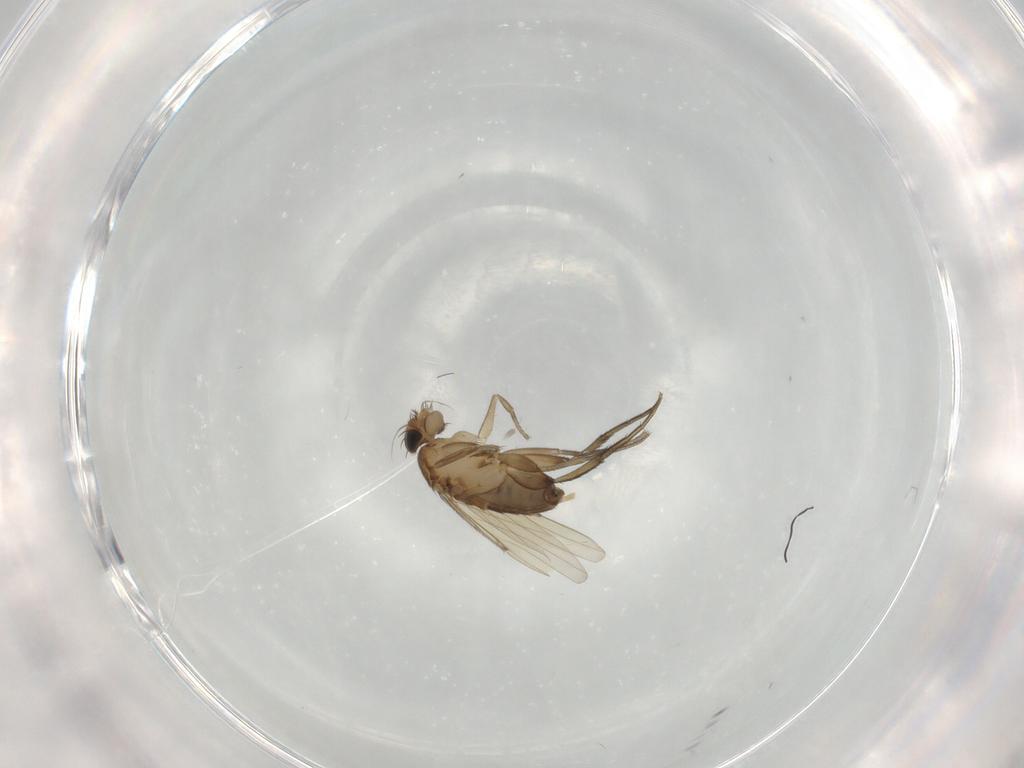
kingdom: Animalia
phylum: Arthropoda
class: Insecta
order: Diptera
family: Phoridae
